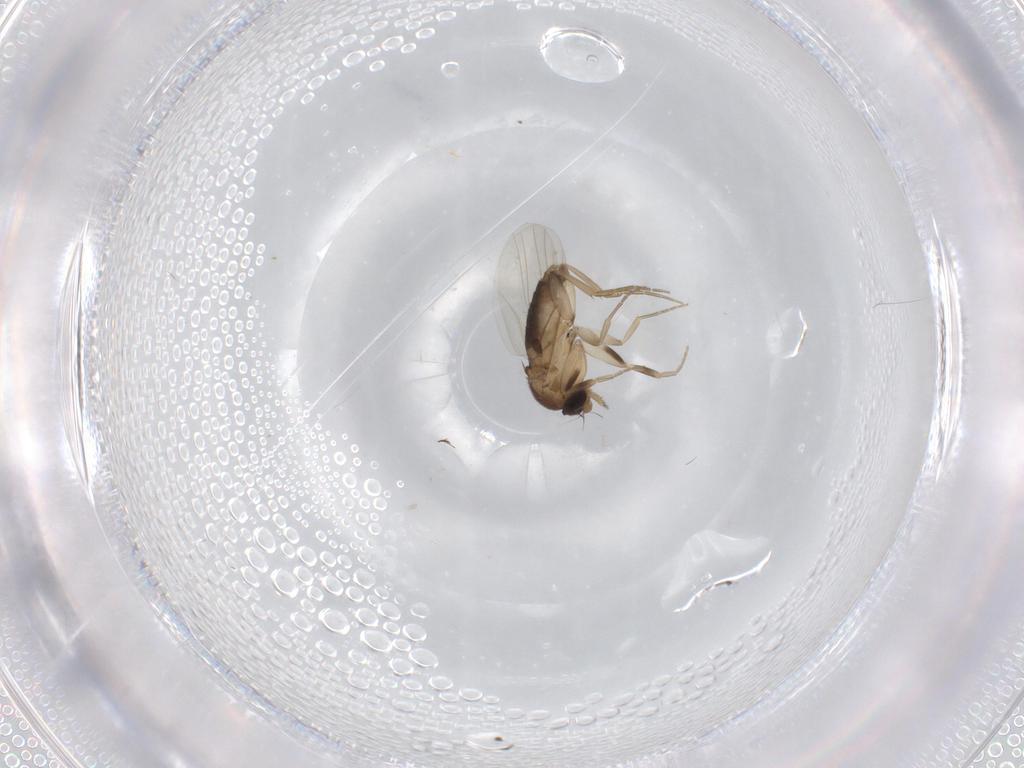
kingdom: Animalia
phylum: Arthropoda
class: Insecta
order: Diptera
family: Phoridae
